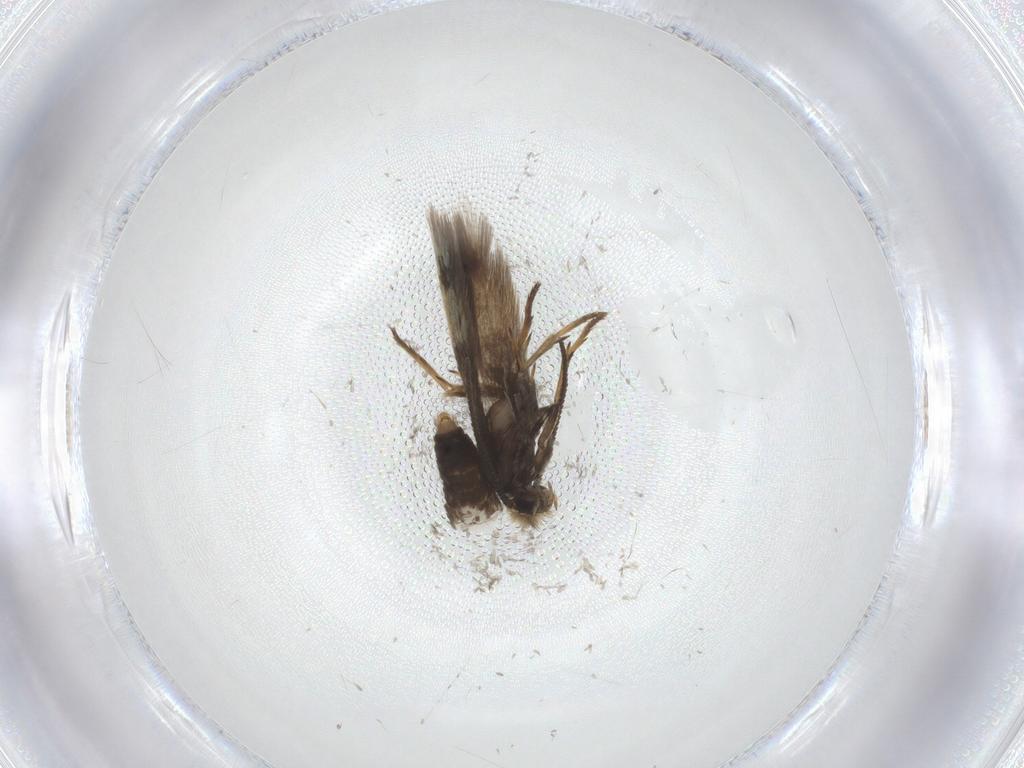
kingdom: Animalia
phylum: Arthropoda
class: Insecta
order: Lepidoptera
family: Nepticulidae
